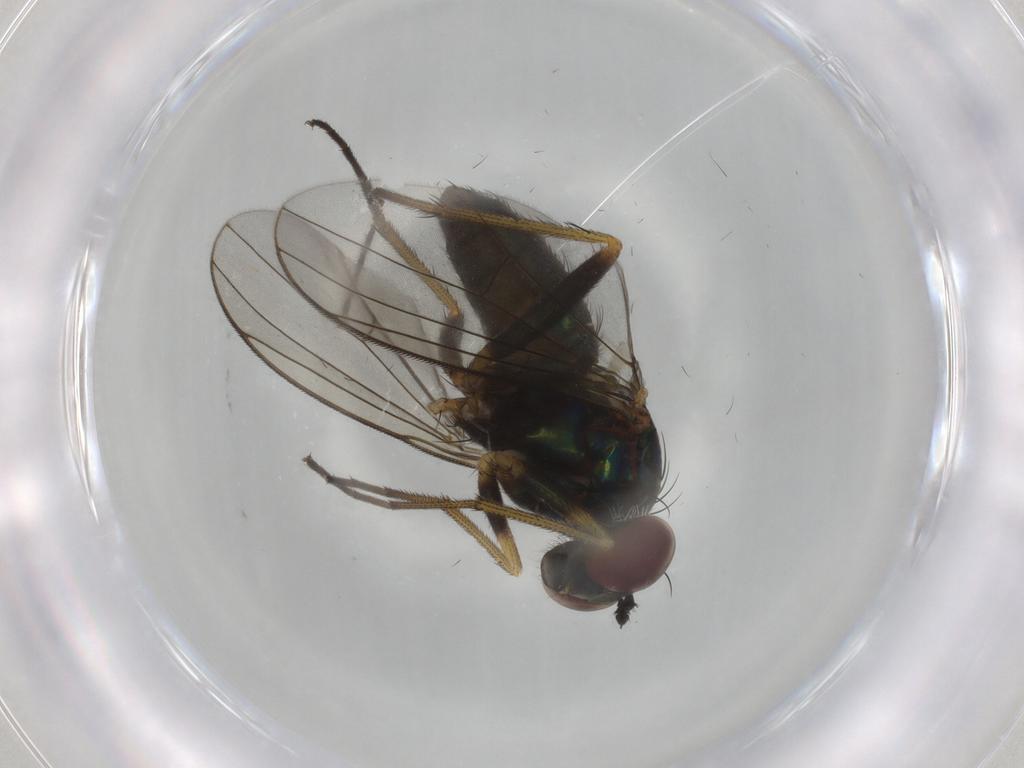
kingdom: Animalia
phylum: Arthropoda
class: Insecta
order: Diptera
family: Dolichopodidae
